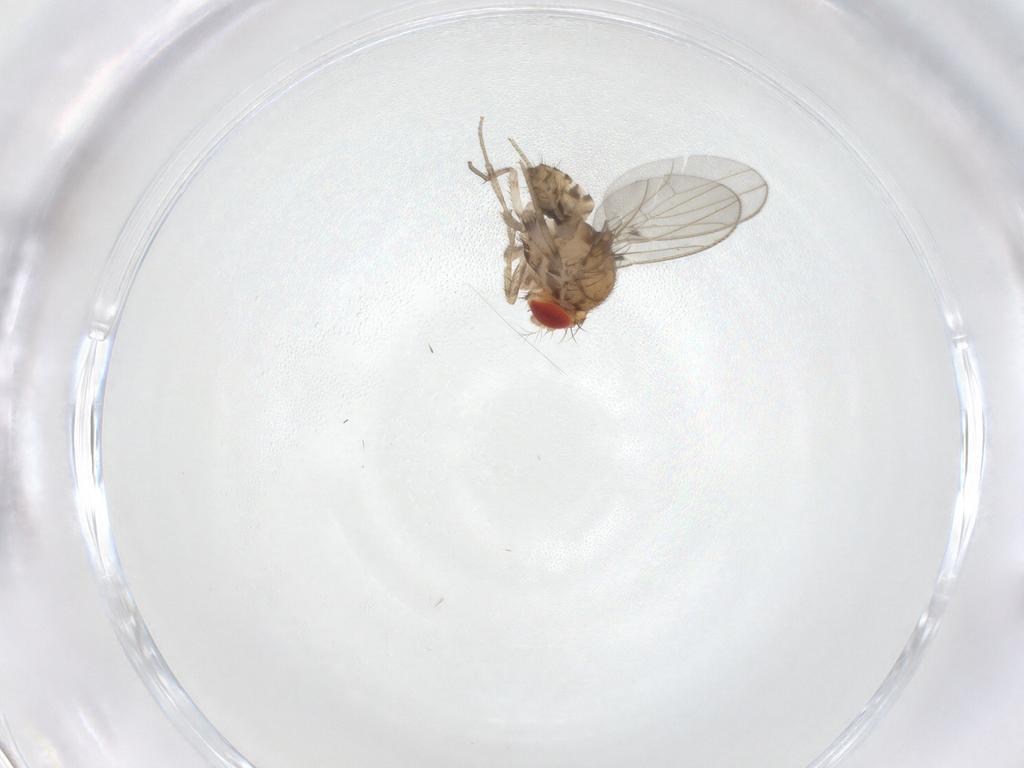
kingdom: Animalia
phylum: Arthropoda
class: Insecta
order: Diptera
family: Drosophilidae
